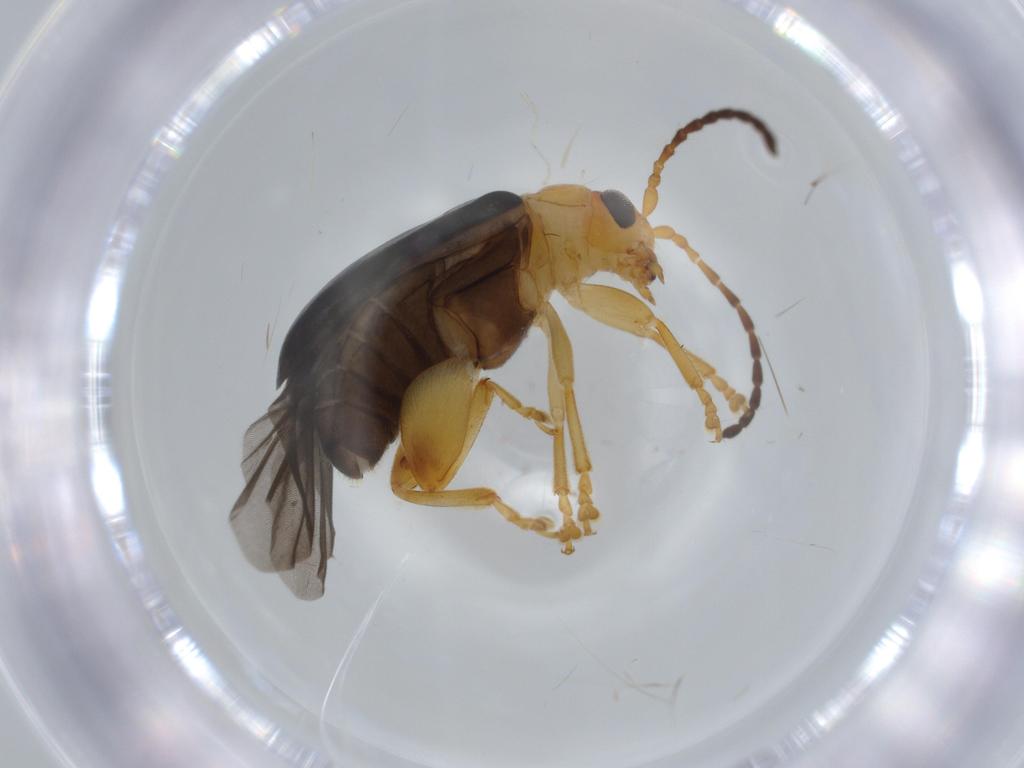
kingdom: Animalia
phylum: Arthropoda
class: Insecta
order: Coleoptera
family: Chrysomelidae
